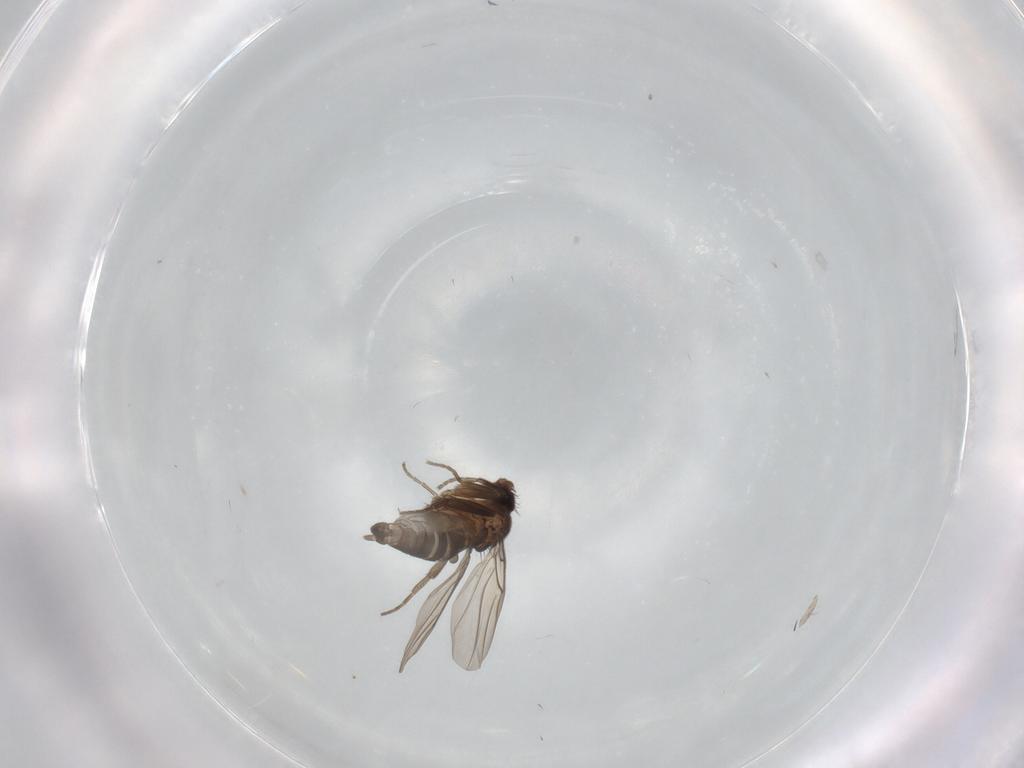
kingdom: Animalia
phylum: Arthropoda
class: Insecta
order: Diptera
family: Phoridae
